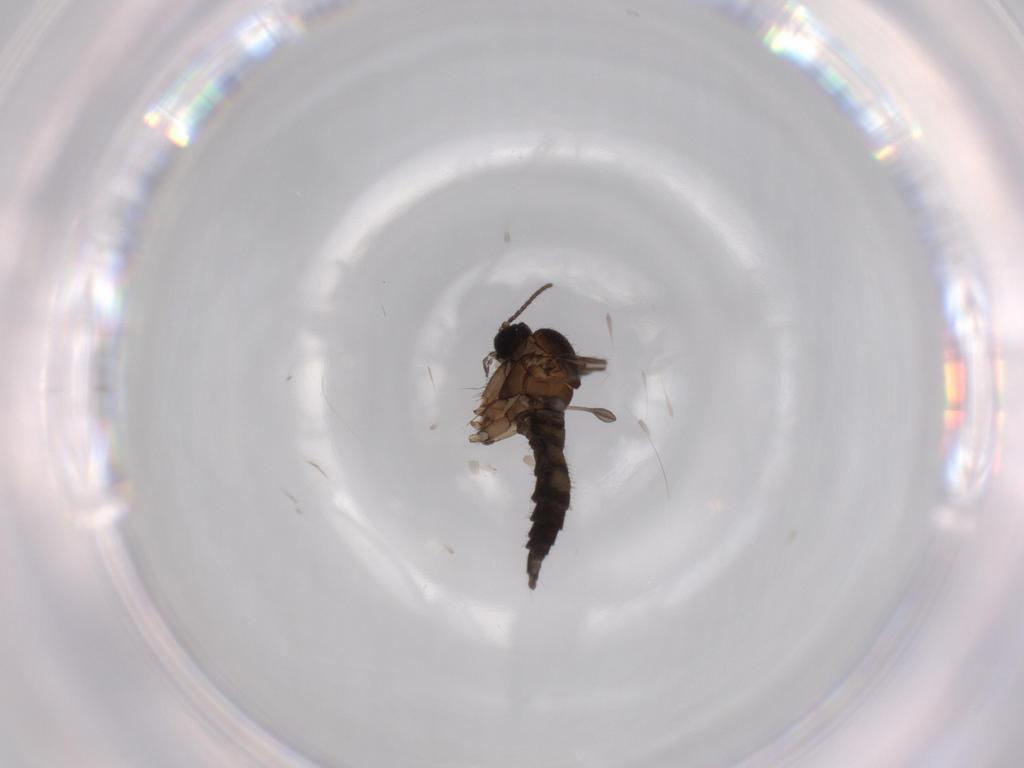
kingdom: Animalia
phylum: Arthropoda
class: Insecta
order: Diptera
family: Sciaridae
